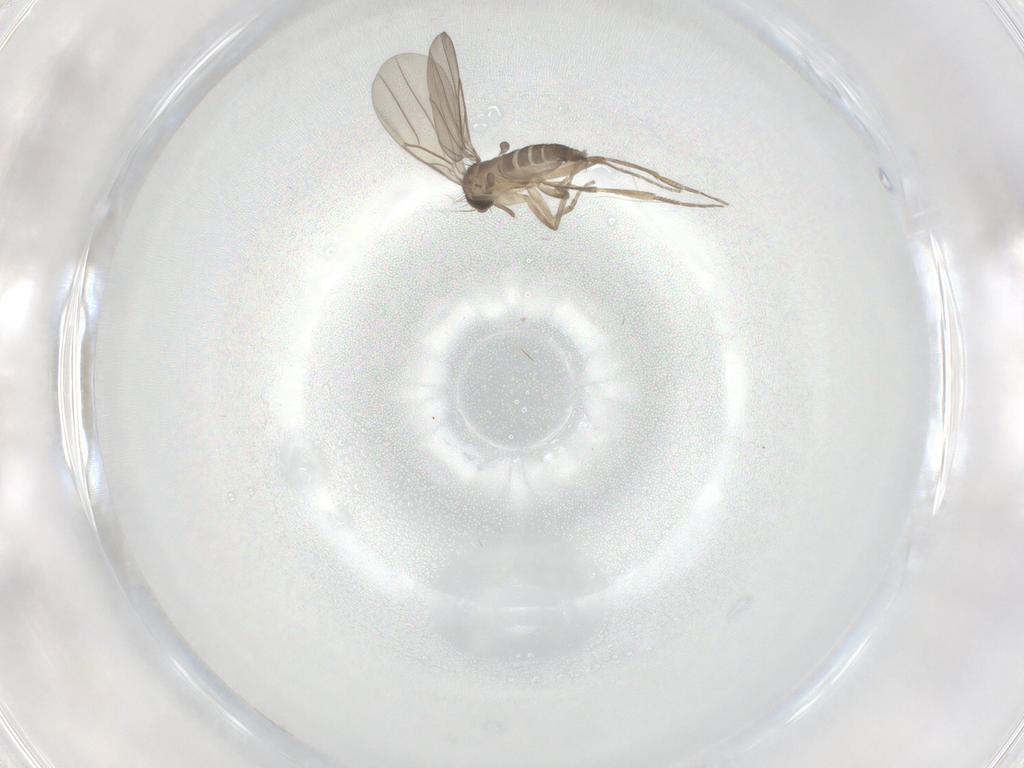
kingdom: Animalia
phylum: Arthropoda
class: Insecta
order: Diptera
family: Phoridae
